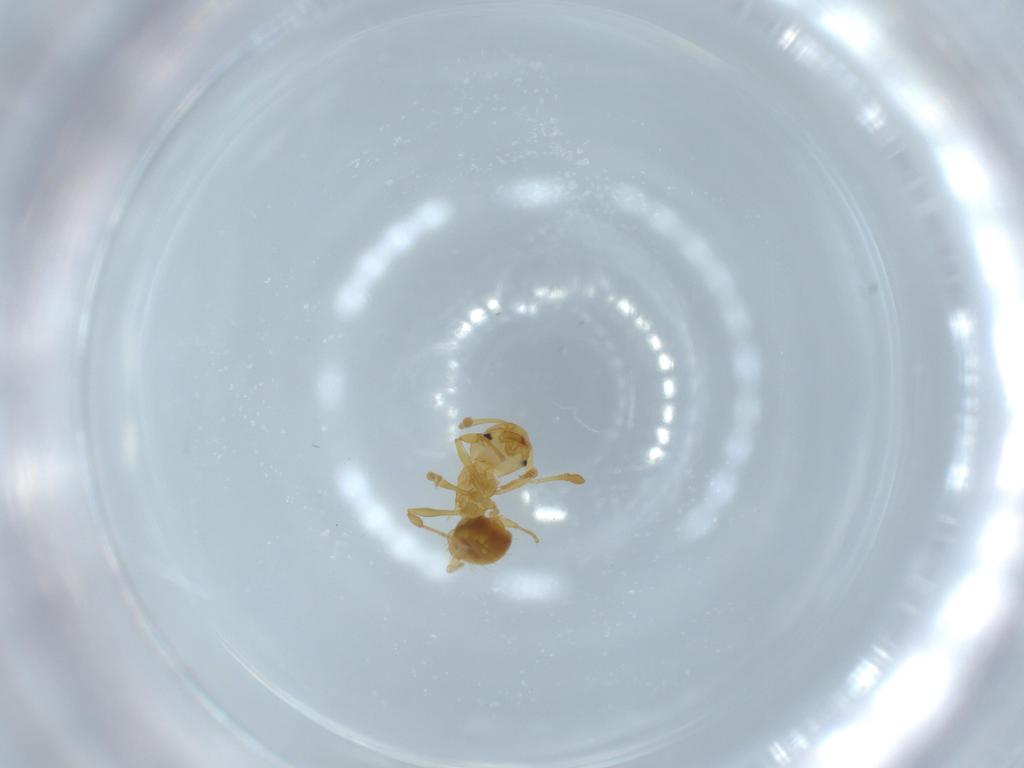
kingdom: Animalia
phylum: Arthropoda
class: Insecta
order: Hymenoptera
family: Formicidae
